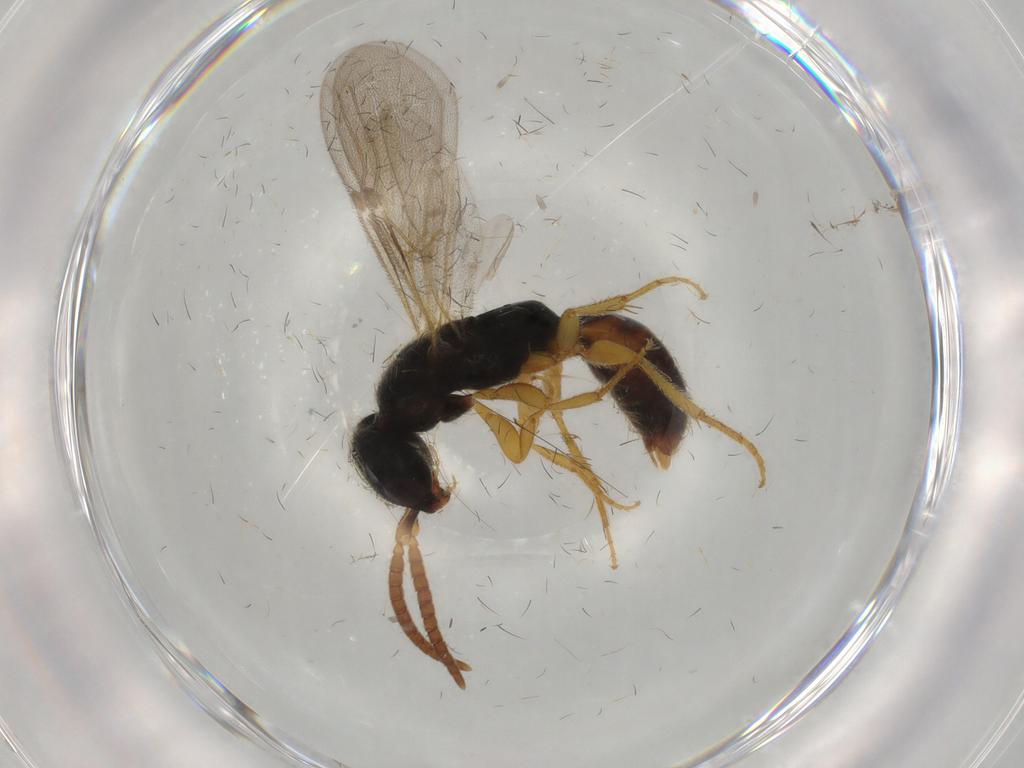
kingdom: Animalia
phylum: Arthropoda
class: Insecta
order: Hymenoptera
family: Bethylidae
